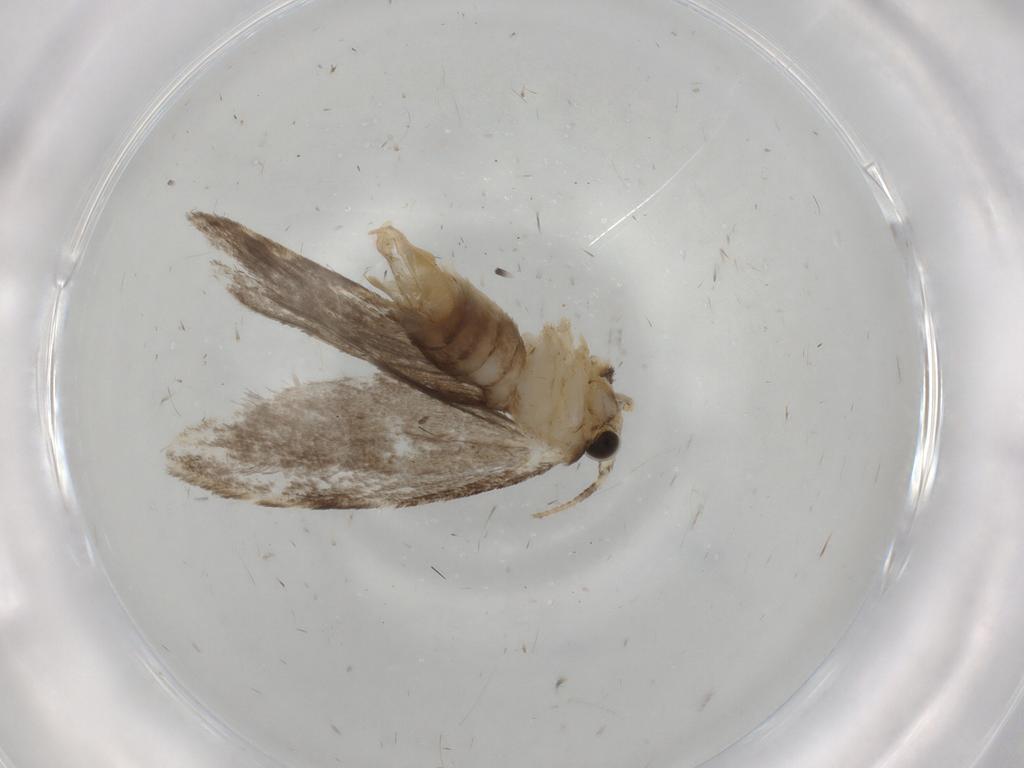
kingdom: Animalia
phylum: Arthropoda
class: Insecta
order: Lepidoptera
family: Tineidae
